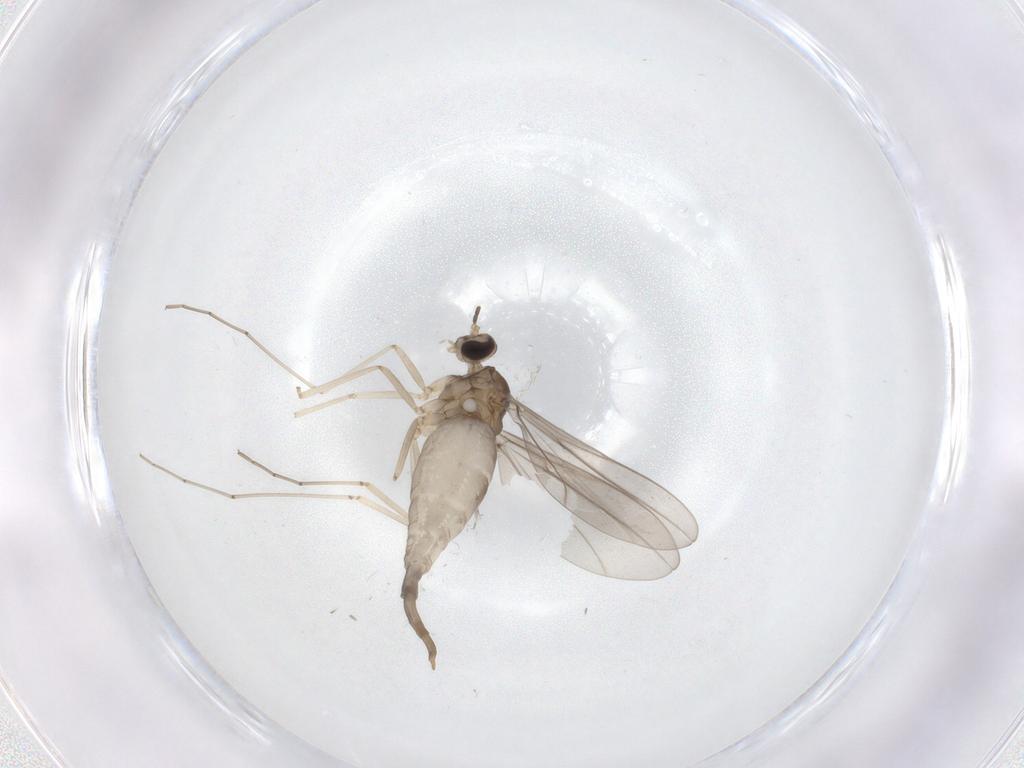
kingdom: Animalia
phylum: Arthropoda
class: Insecta
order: Diptera
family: Cecidomyiidae
